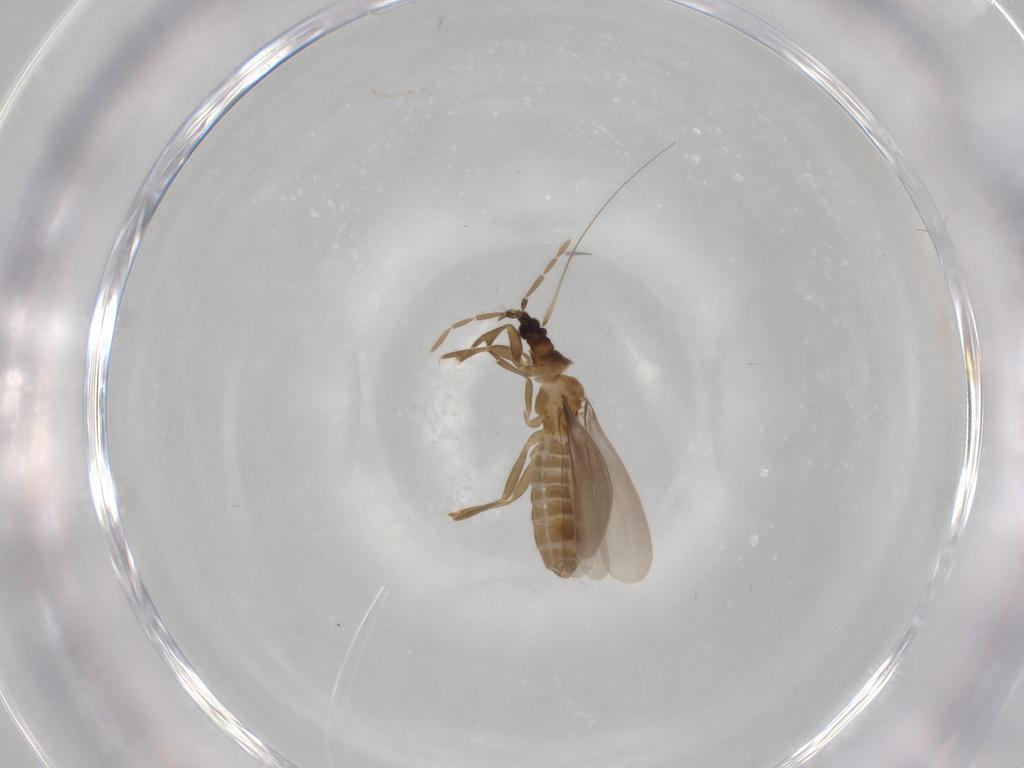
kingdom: Animalia
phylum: Arthropoda
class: Insecta
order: Hemiptera
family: Enicocephalidae
